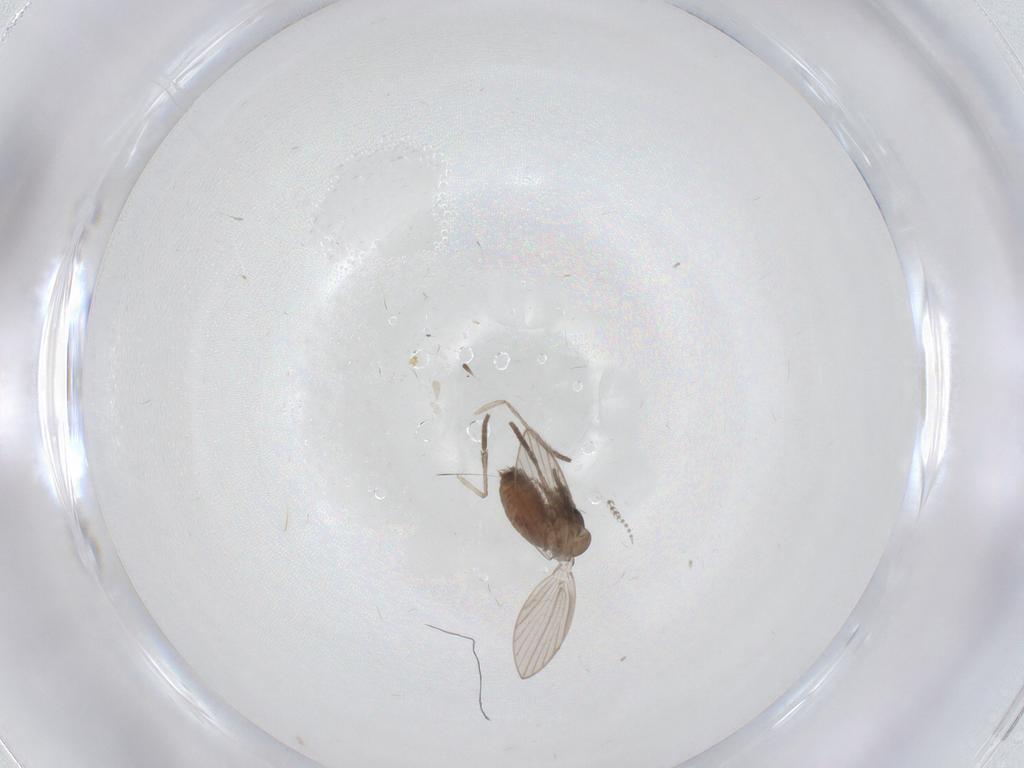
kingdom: Animalia
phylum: Arthropoda
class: Insecta
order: Diptera
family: Psychodidae
